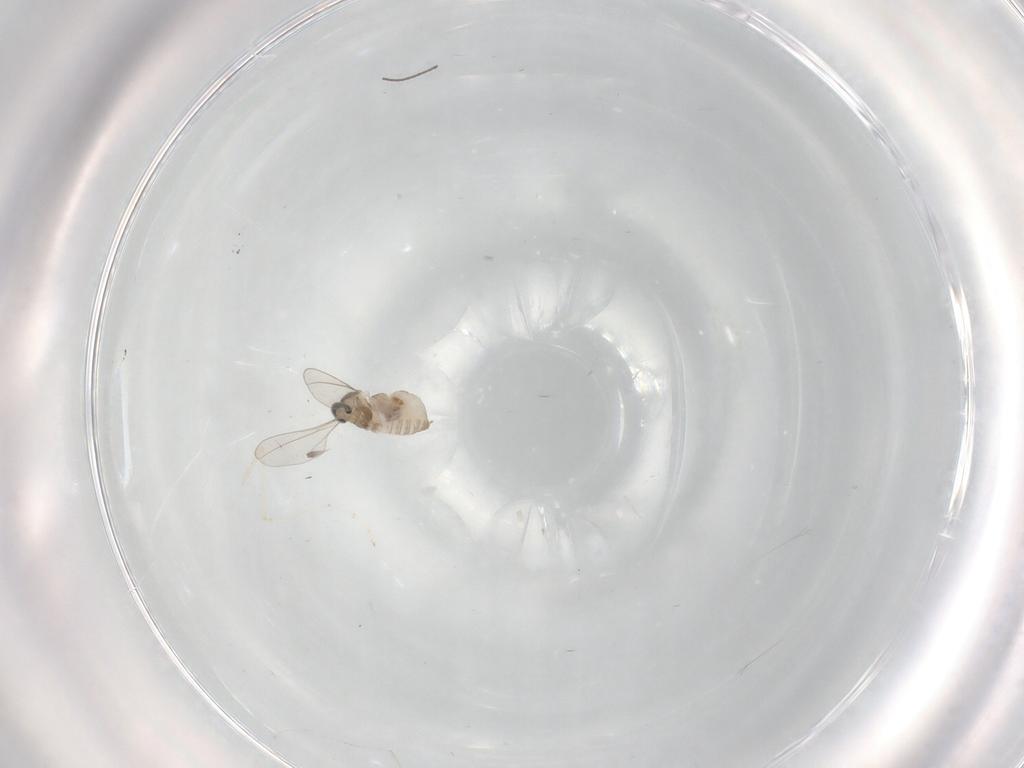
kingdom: Animalia
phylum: Arthropoda
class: Insecta
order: Diptera
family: Cecidomyiidae
